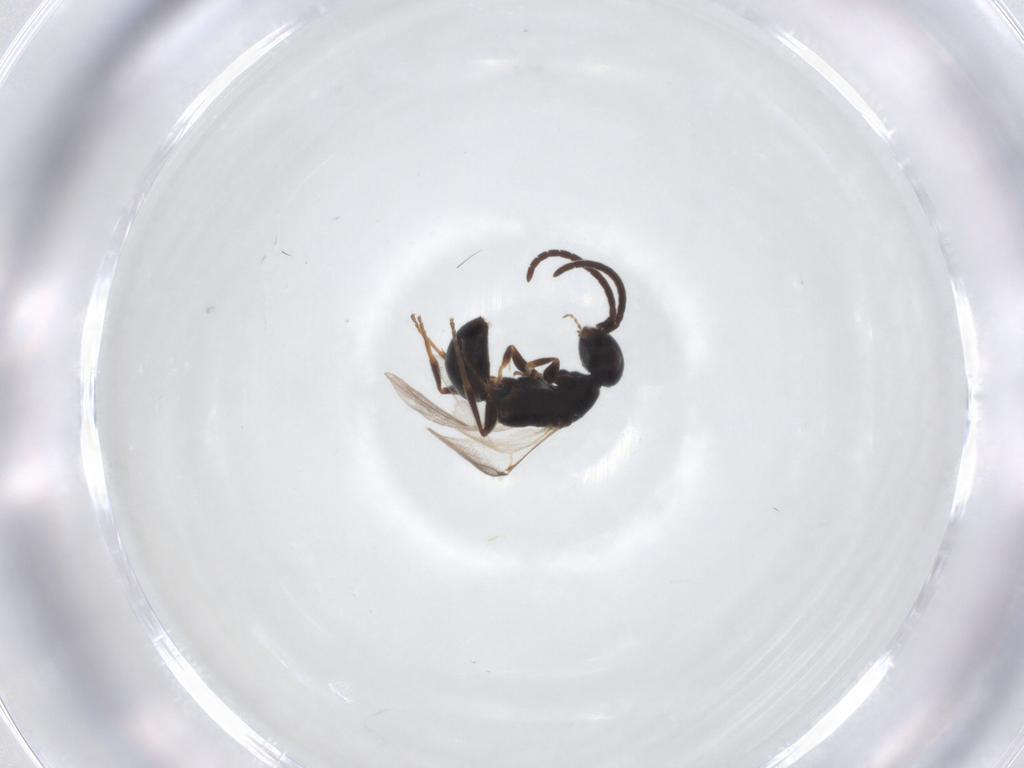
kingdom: Animalia
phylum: Arthropoda
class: Insecta
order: Hymenoptera
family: Bethylidae
